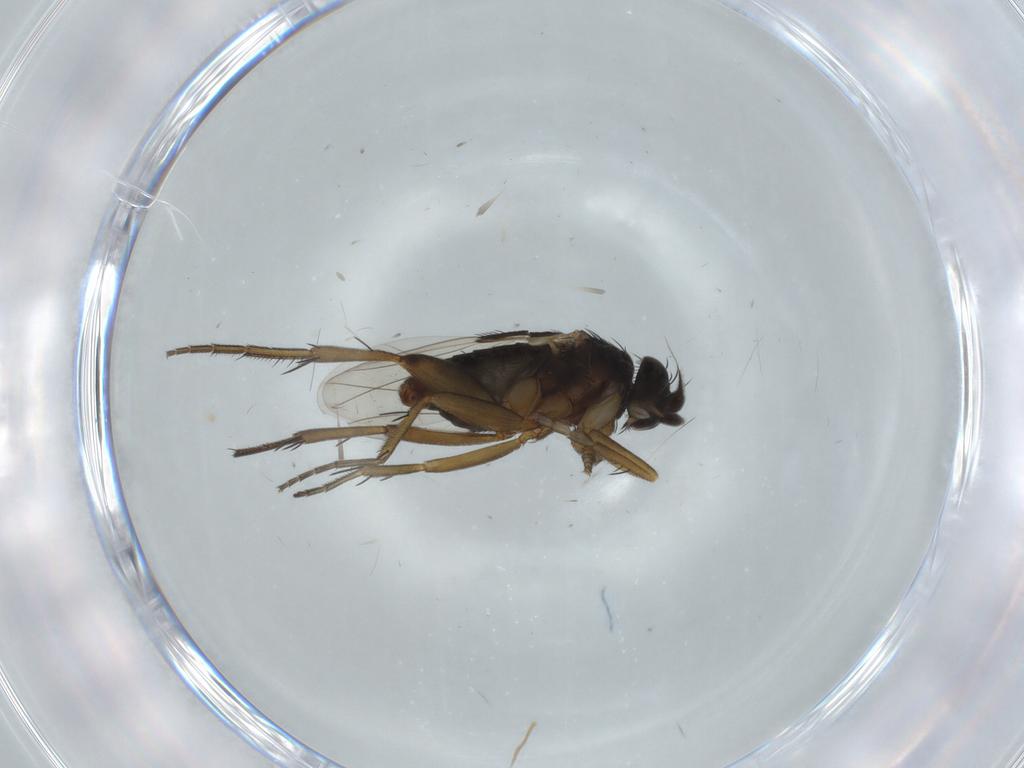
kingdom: Animalia
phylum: Arthropoda
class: Insecta
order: Diptera
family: Phoridae
